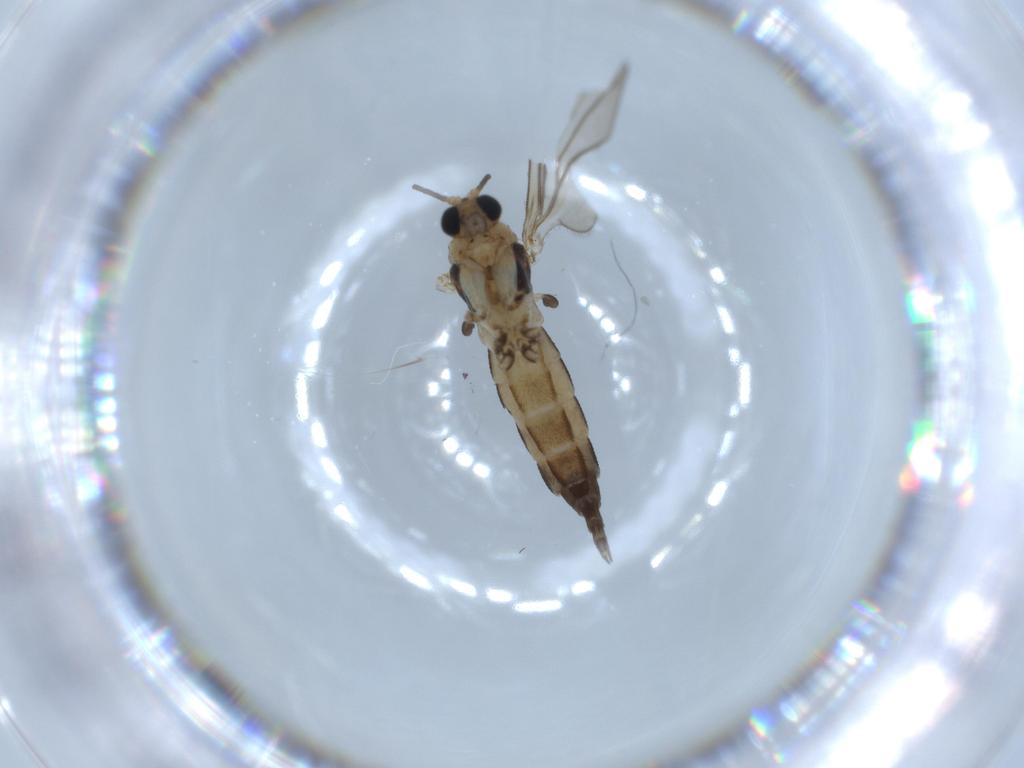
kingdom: Animalia
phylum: Arthropoda
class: Insecta
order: Diptera
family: Sciaridae
